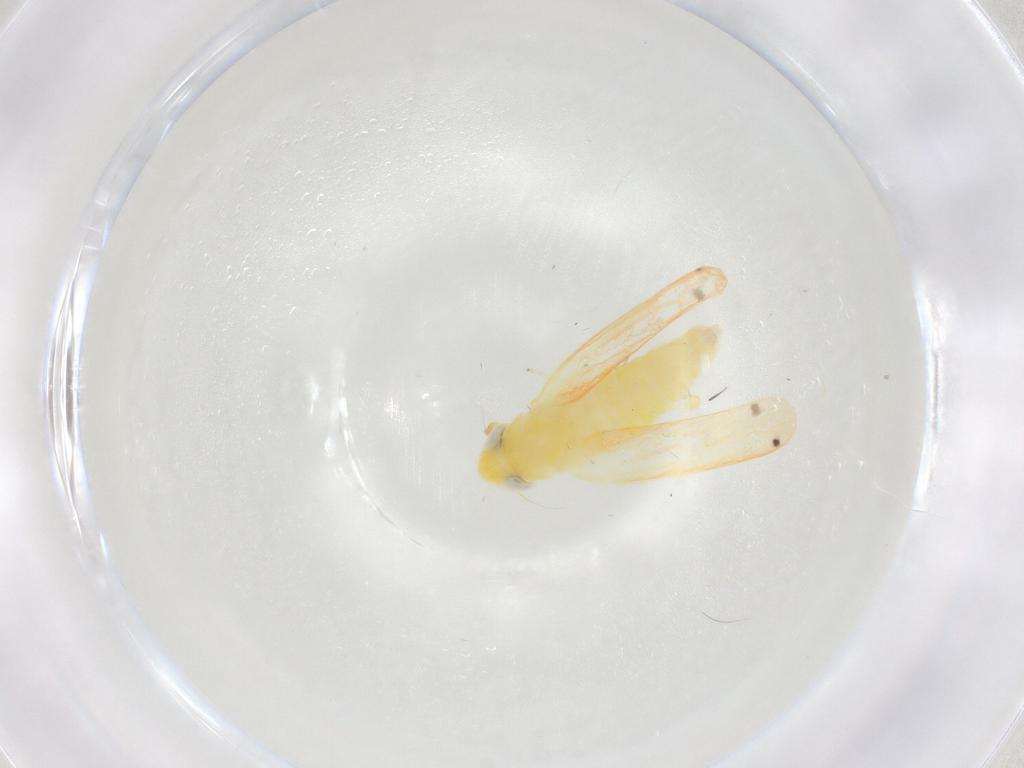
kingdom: Animalia
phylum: Arthropoda
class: Insecta
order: Hemiptera
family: Cicadellidae
